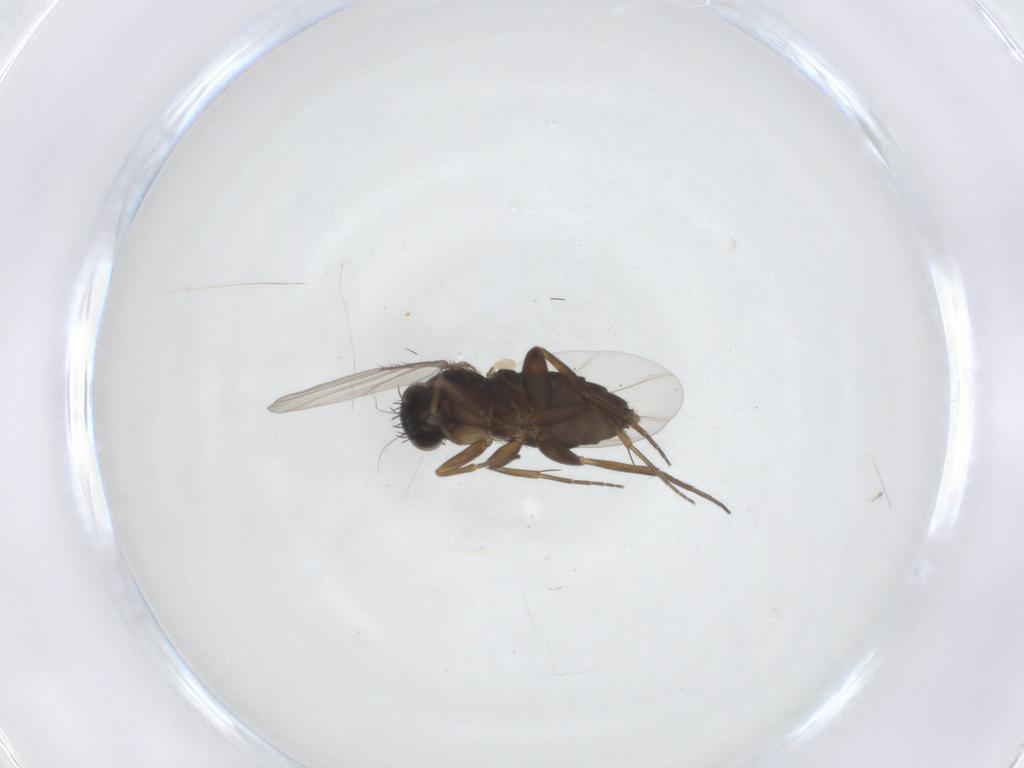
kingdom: Animalia
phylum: Arthropoda
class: Insecta
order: Diptera
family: Phoridae
